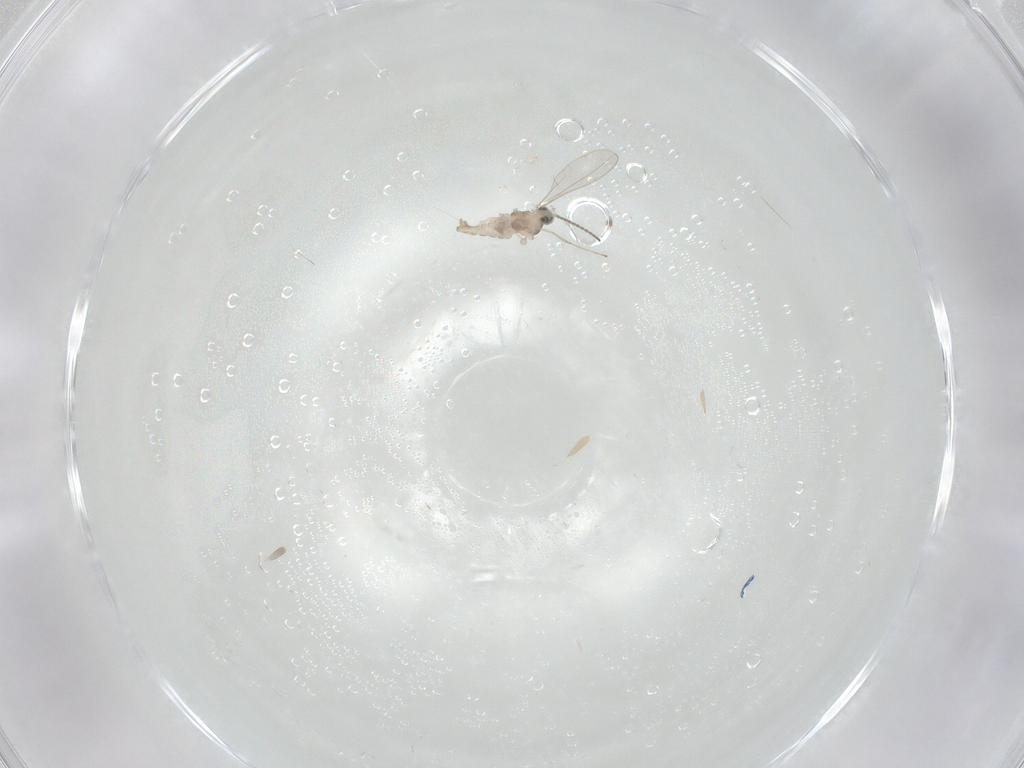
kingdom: Animalia
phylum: Arthropoda
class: Insecta
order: Diptera
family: Cecidomyiidae
